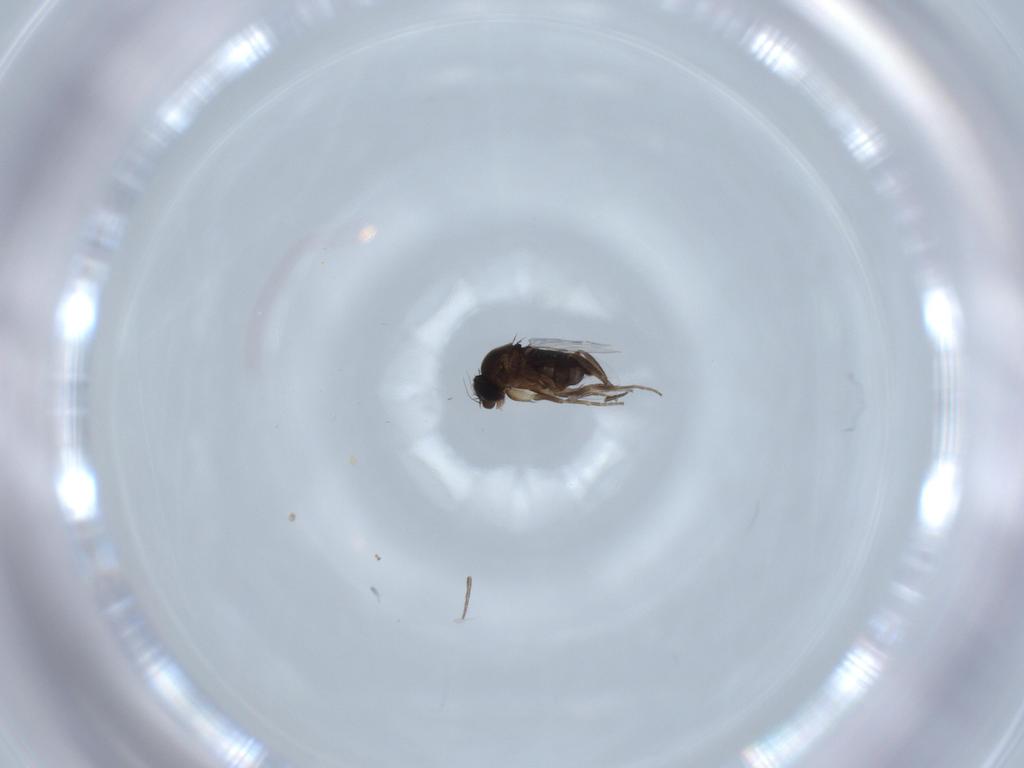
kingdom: Animalia
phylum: Arthropoda
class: Insecta
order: Diptera
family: Phoridae
